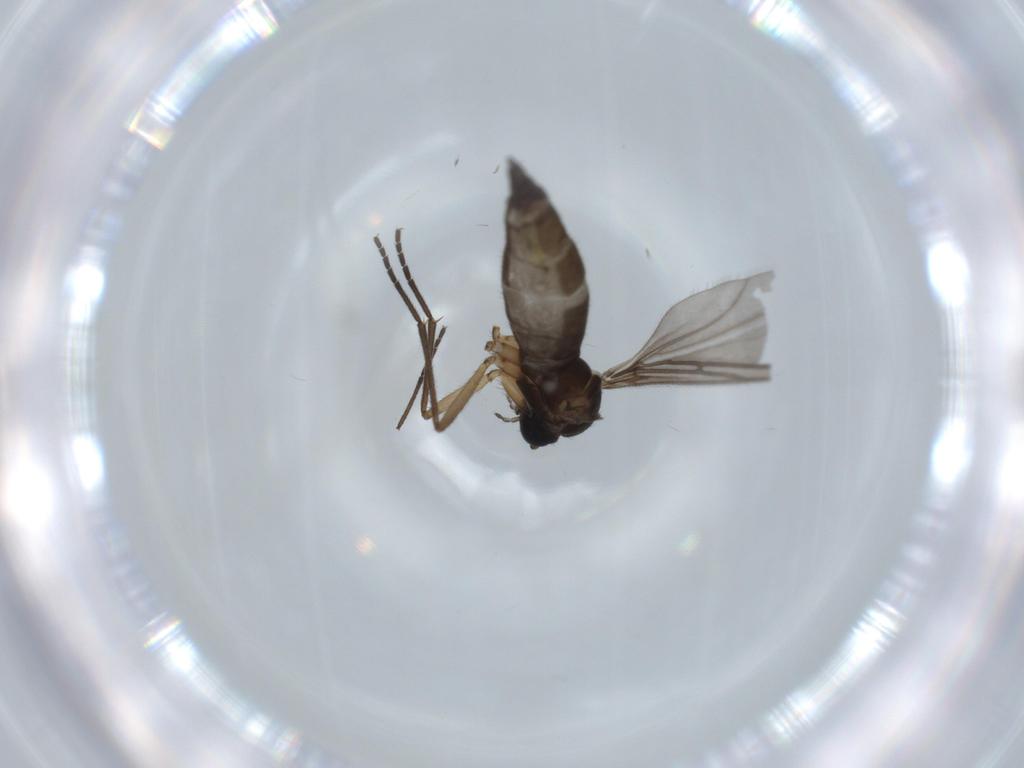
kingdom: Animalia
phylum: Arthropoda
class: Insecta
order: Diptera
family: Sciaridae
